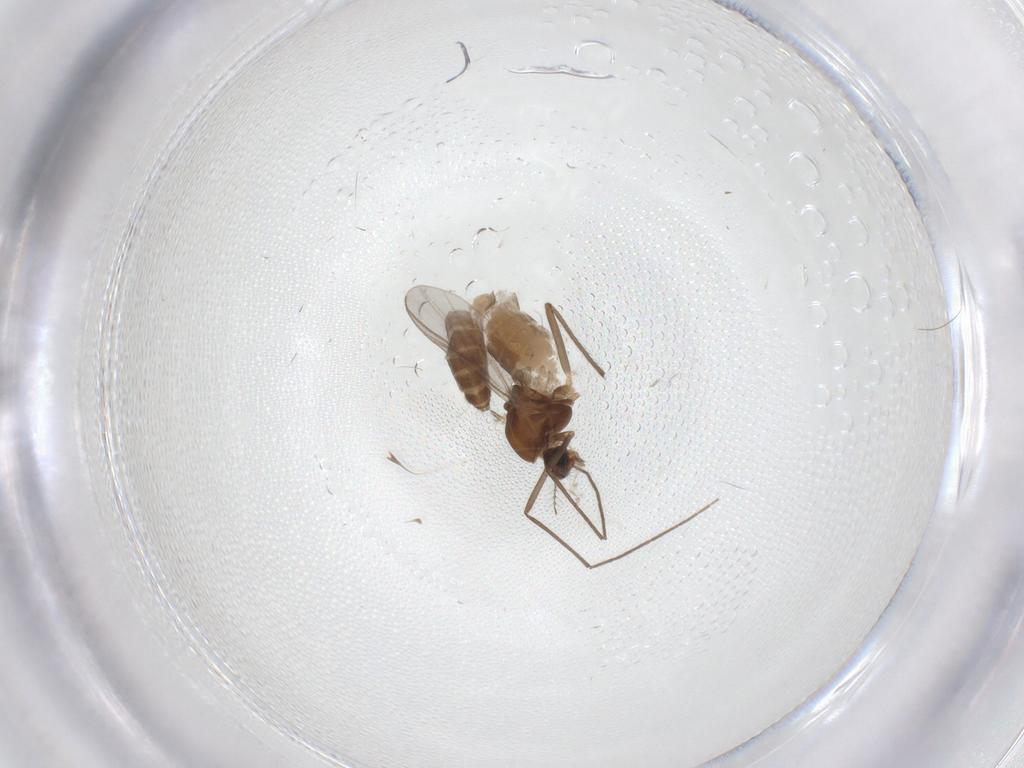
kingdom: Animalia
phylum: Arthropoda
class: Insecta
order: Diptera
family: Chironomidae
